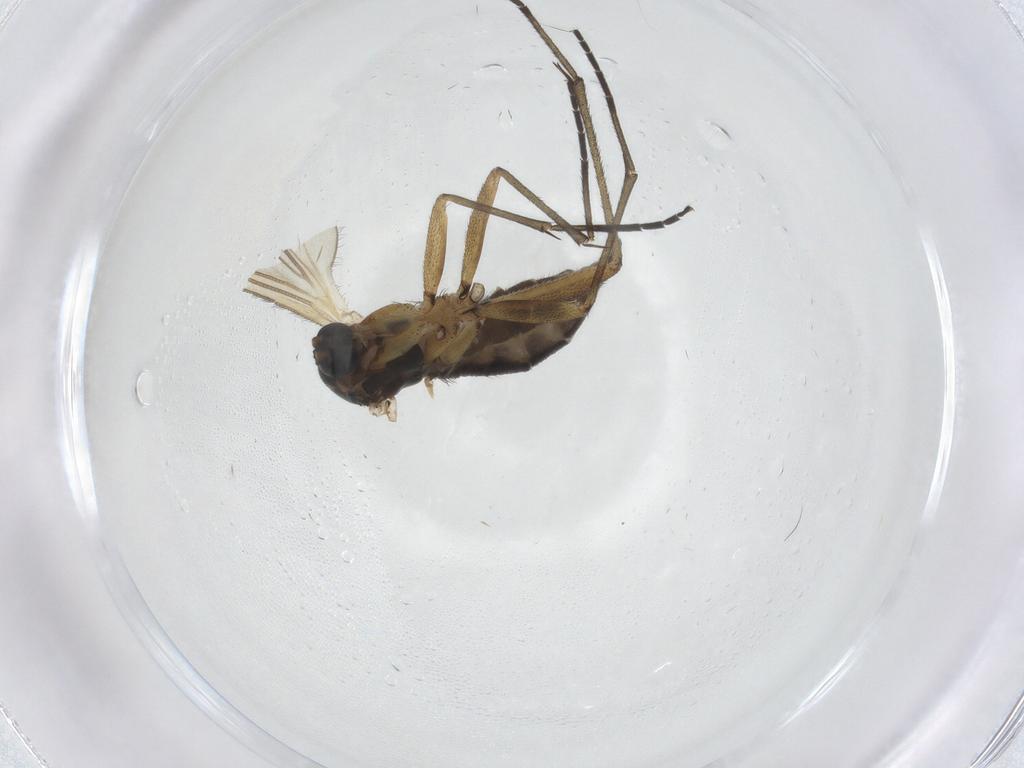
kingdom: Animalia
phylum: Arthropoda
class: Insecta
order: Diptera
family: Sciaridae
